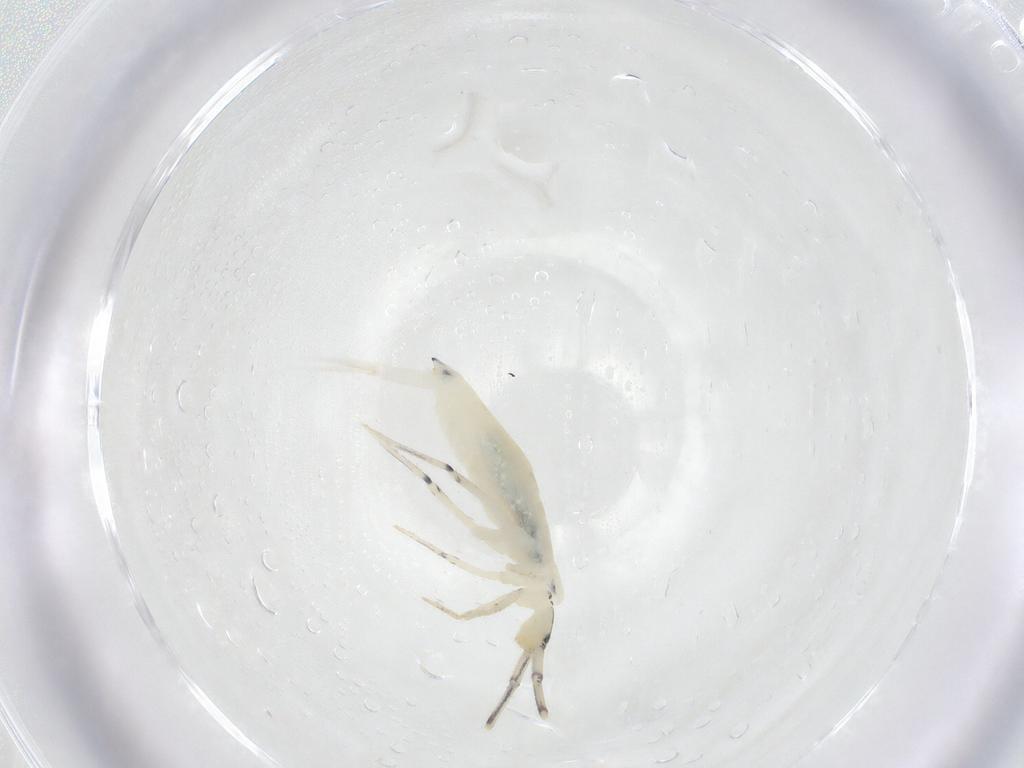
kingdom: Animalia
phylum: Arthropoda
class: Collembola
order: Entomobryomorpha
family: Entomobryidae
